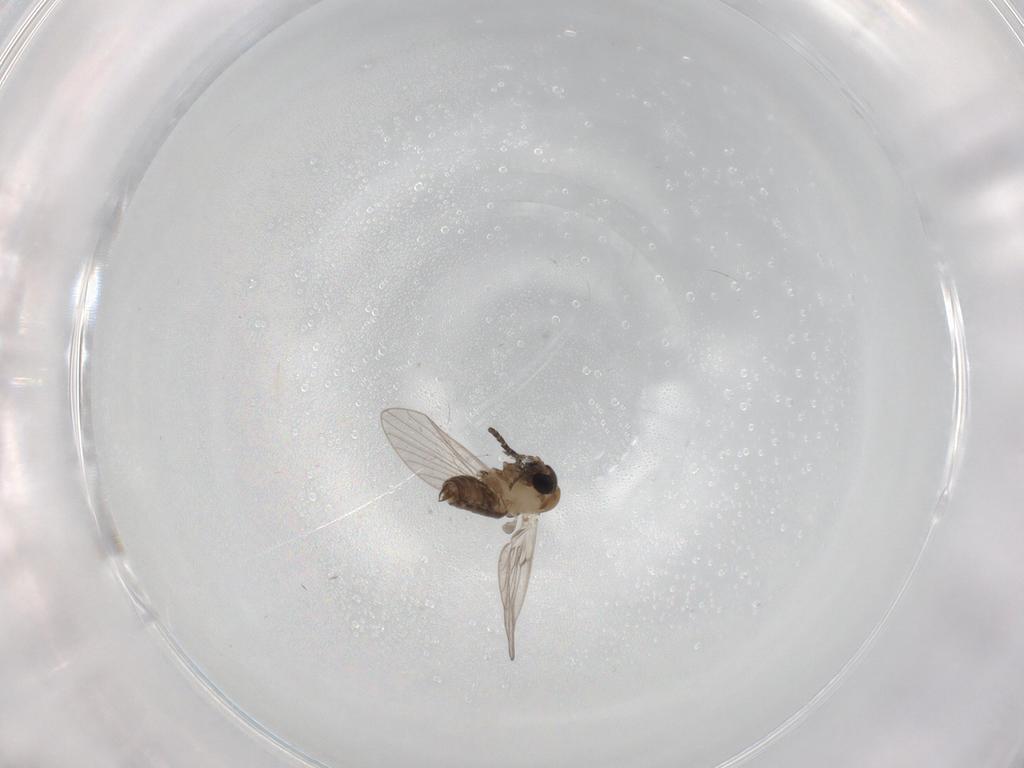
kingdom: Animalia
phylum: Arthropoda
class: Insecta
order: Diptera
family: Psychodidae
